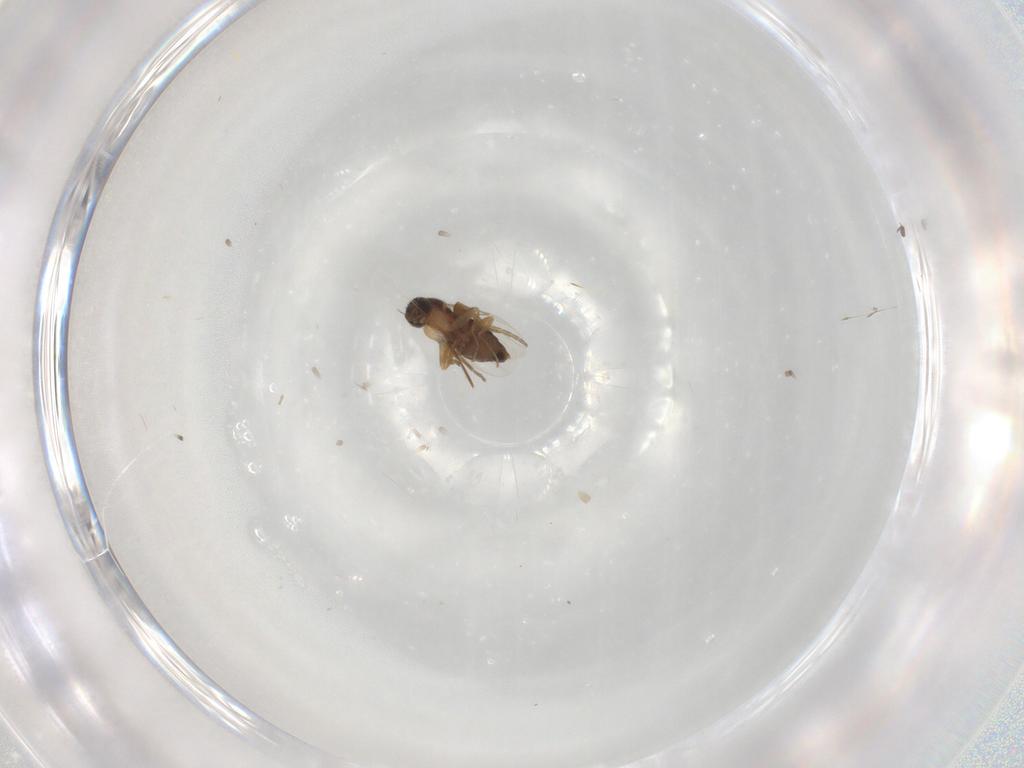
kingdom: Animalia
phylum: Arthropoda
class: Insecta
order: Diptera
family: Phoridae
